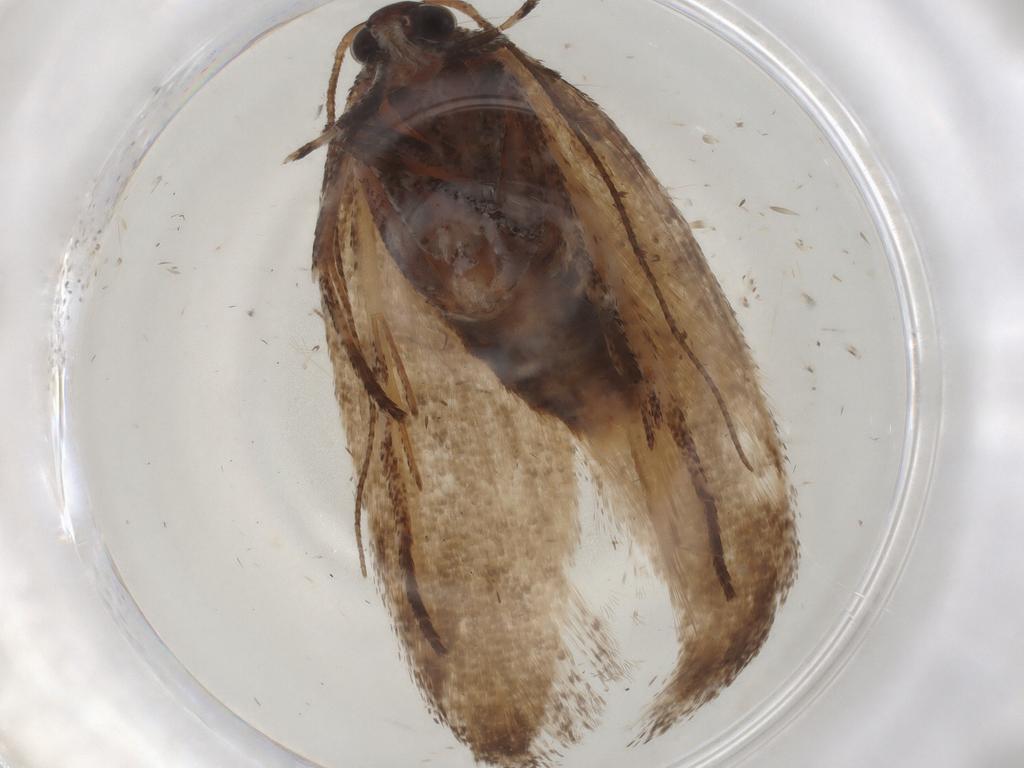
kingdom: Animalia
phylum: Arthropoda
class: Insecta
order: Lepidoptera
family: Cosmopterigidae
